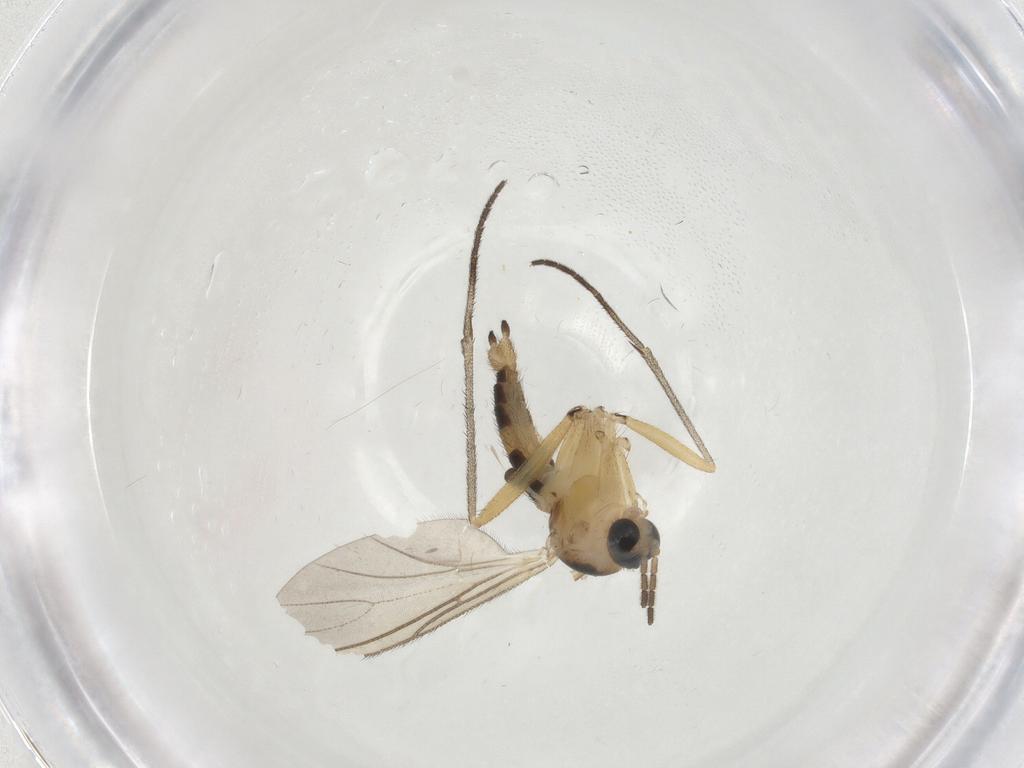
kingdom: Animalia
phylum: Arthropoda
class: Insecta
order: Diptera
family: Sciaridae
